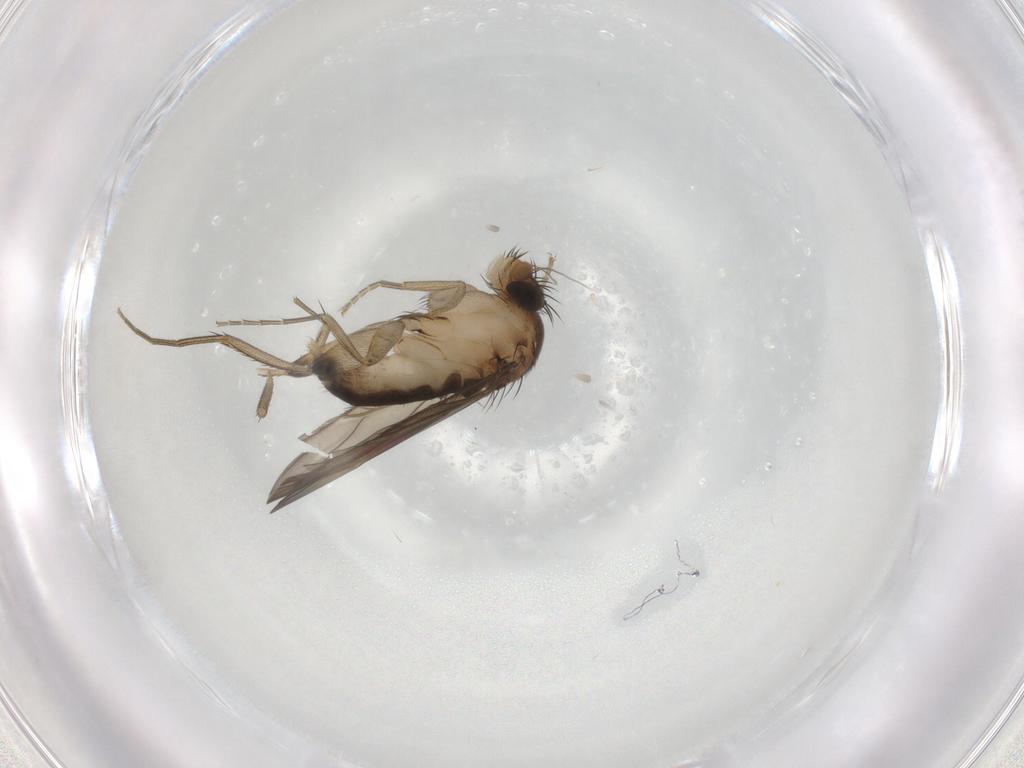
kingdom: Animalia
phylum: Arthropoda
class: Insecta
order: Diptera
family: Phoridae
